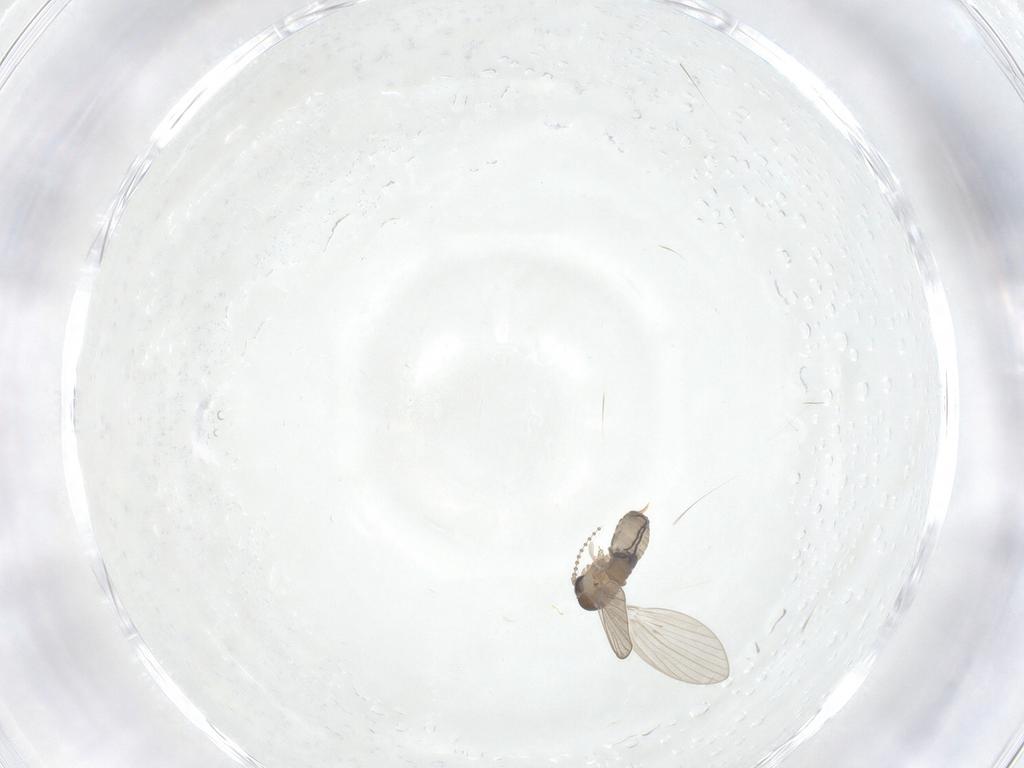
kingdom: Animalia
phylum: Arthropoda
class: Insecta
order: Diptera
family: Psychodidae
